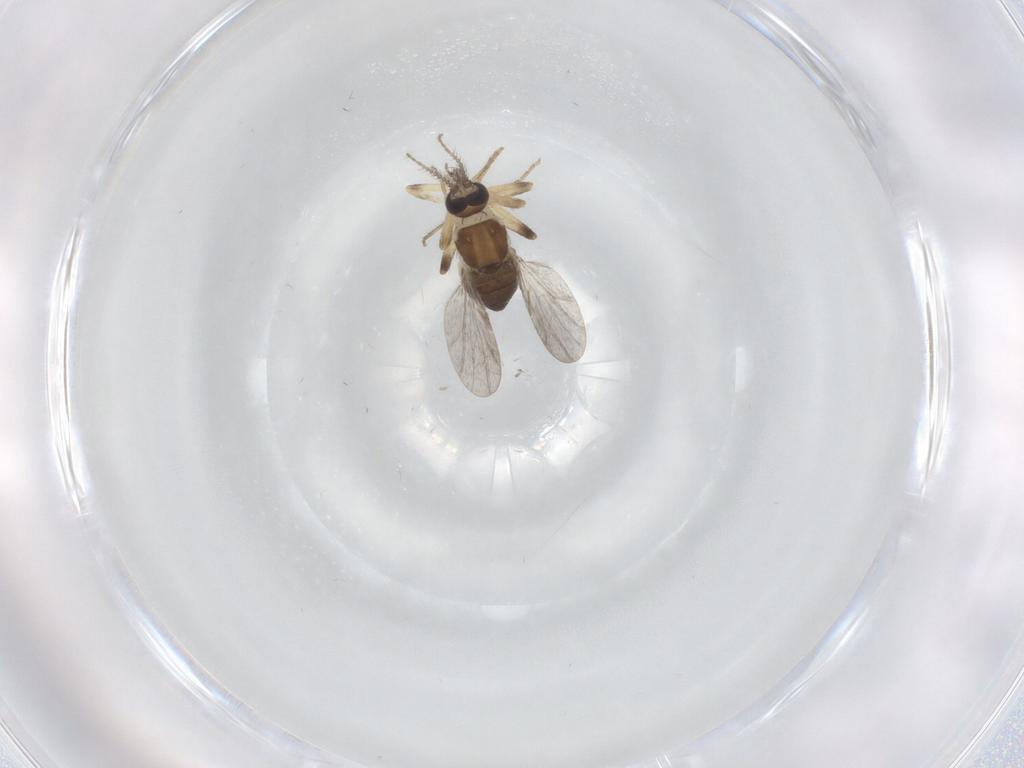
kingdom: Animalia
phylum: Arthropoda
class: Insecta
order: Diptera
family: Ceratopogonidae
